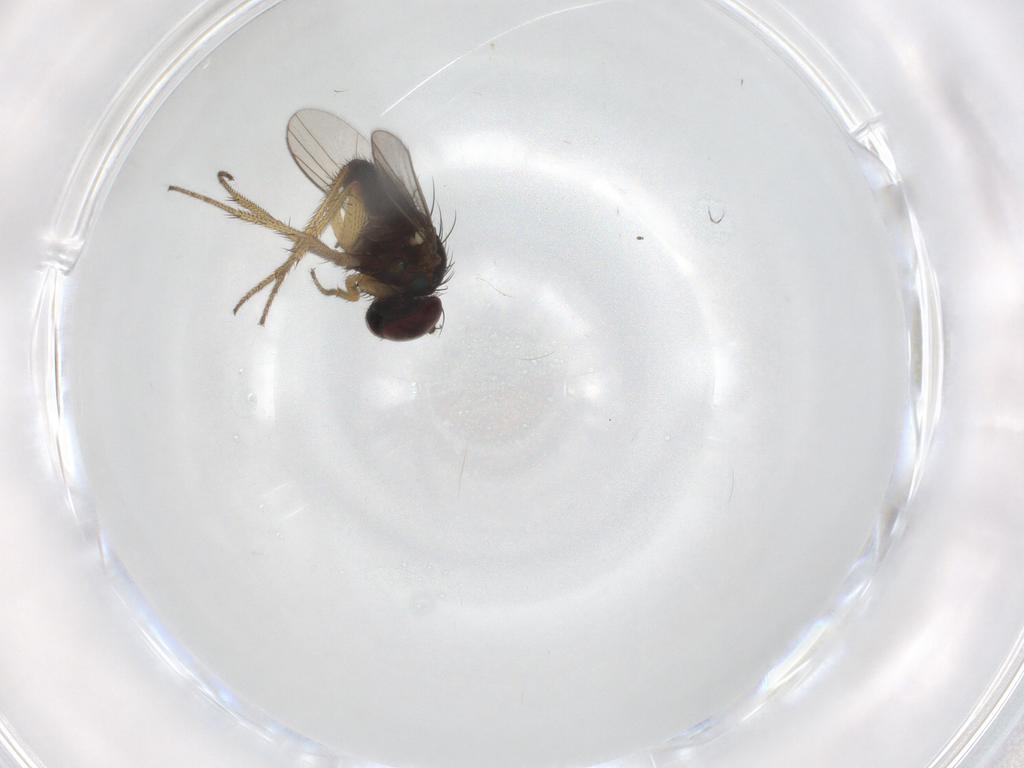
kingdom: Animalia
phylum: Arthropoda
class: Insecta
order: Diptera
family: Dolichopodidae
